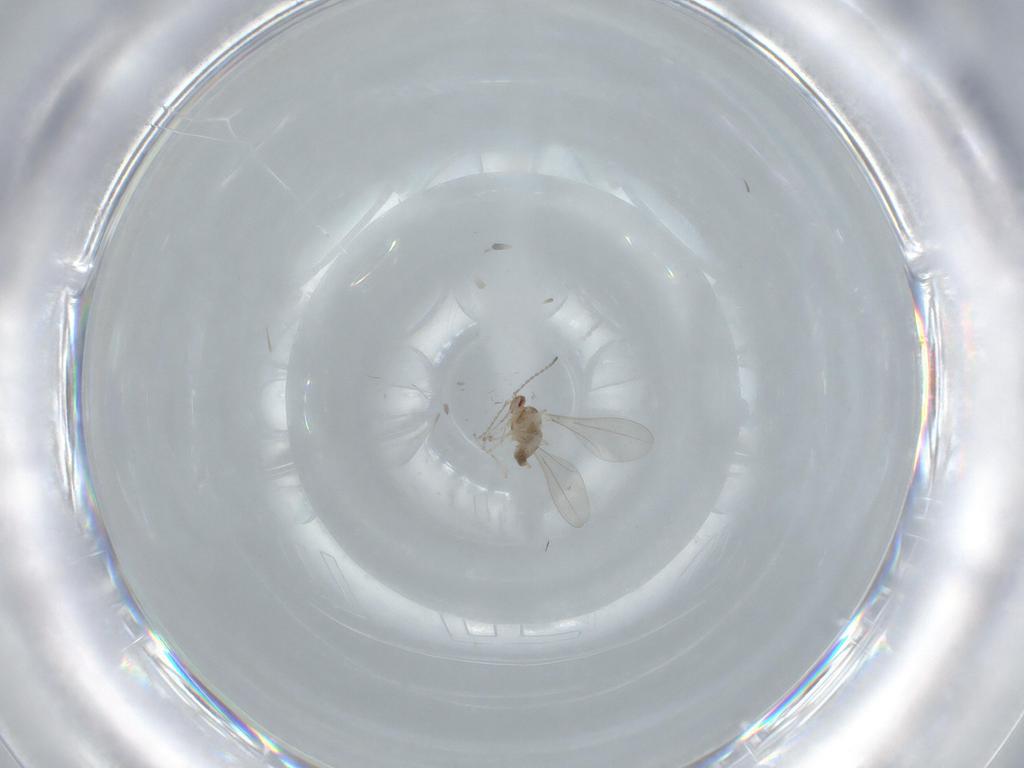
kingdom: Animalia
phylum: Arthropoda
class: Insecta
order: Diptera
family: Cecidomyiidae
